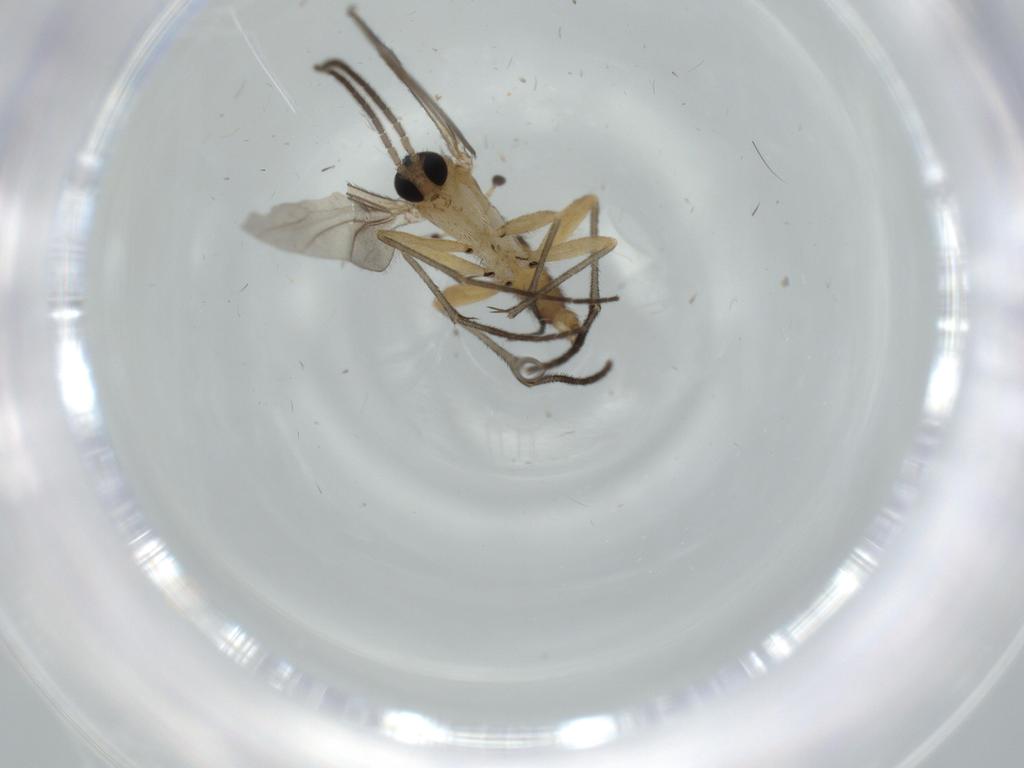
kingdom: Animalia
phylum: Arthropoda
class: Insecta
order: Diptera
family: Sciaridae
